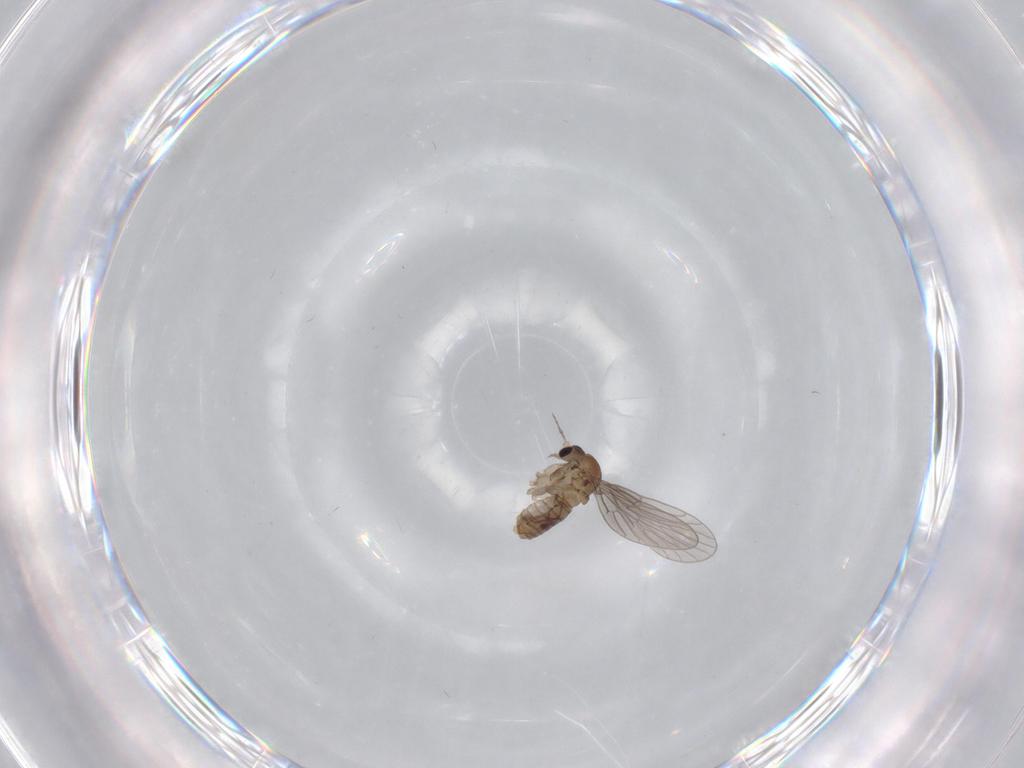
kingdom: Animalia
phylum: Arthropoda
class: Insecta
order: Diptera
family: Psychodidae
